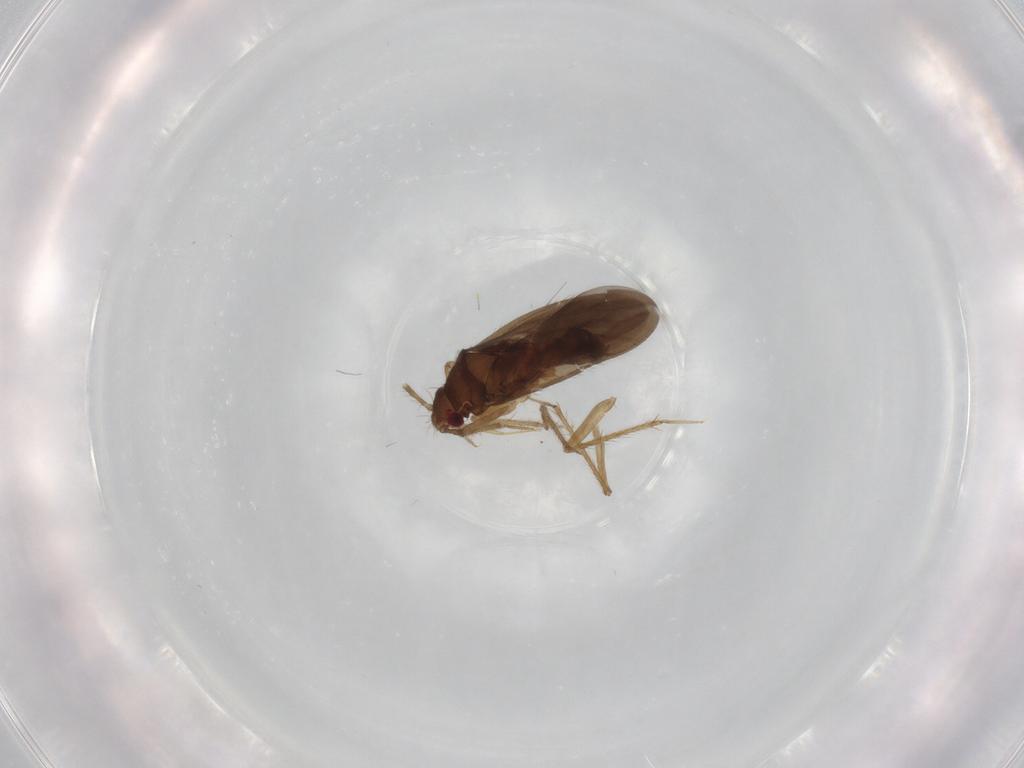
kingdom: Animalia
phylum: Arthropoda
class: Insecta
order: Hemiptera
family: Ceratocombidae
